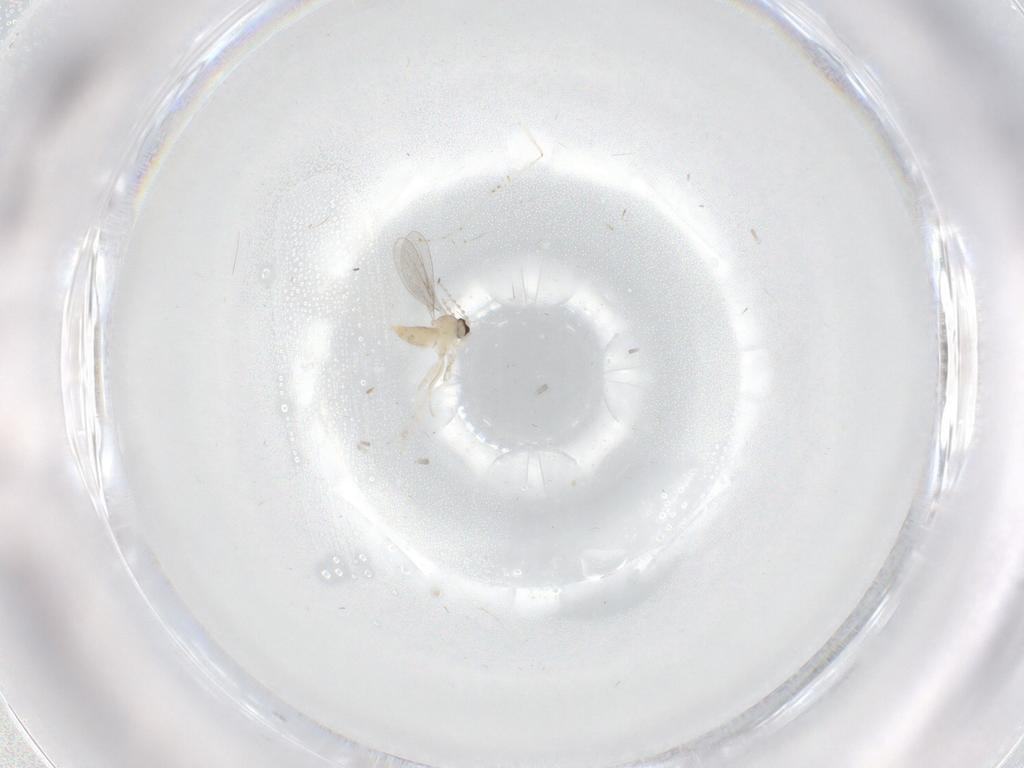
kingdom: Animalia
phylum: Arthropoda
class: Insecta
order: Diptera
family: Cecidomyiidae
